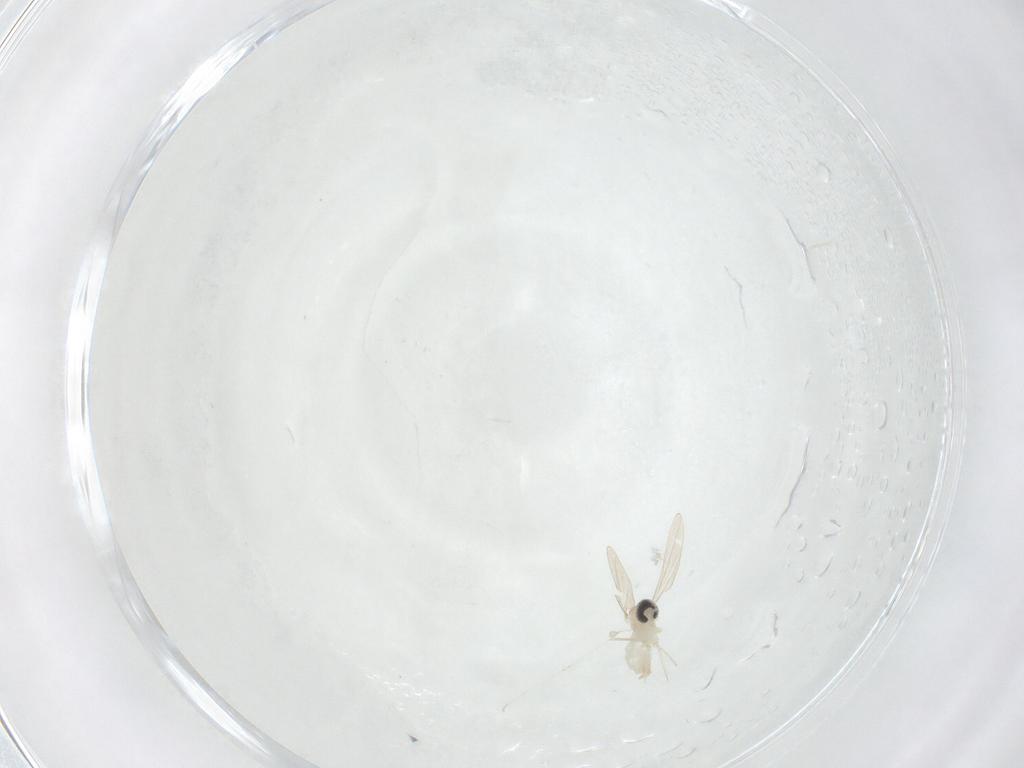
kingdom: Animalia
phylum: Arthropoda
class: Insecta
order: Diptera
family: Cecidomyiidae
